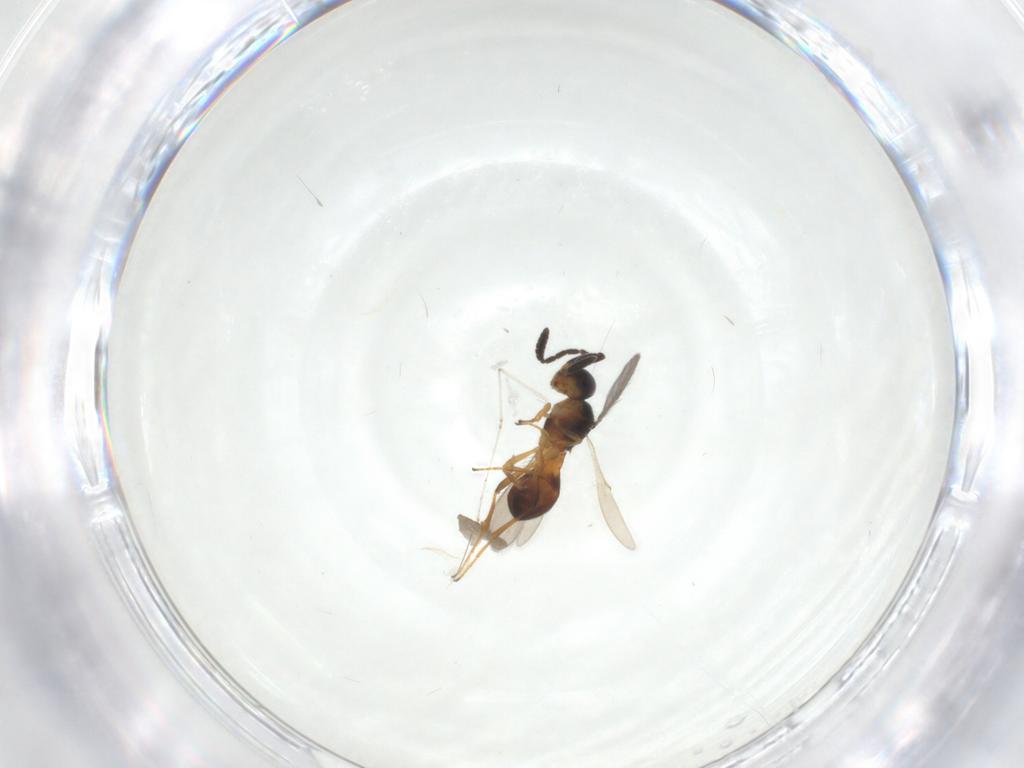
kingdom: Animalia
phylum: Arthropoda
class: Insecta
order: Hymenoptera
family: Scelionidae
